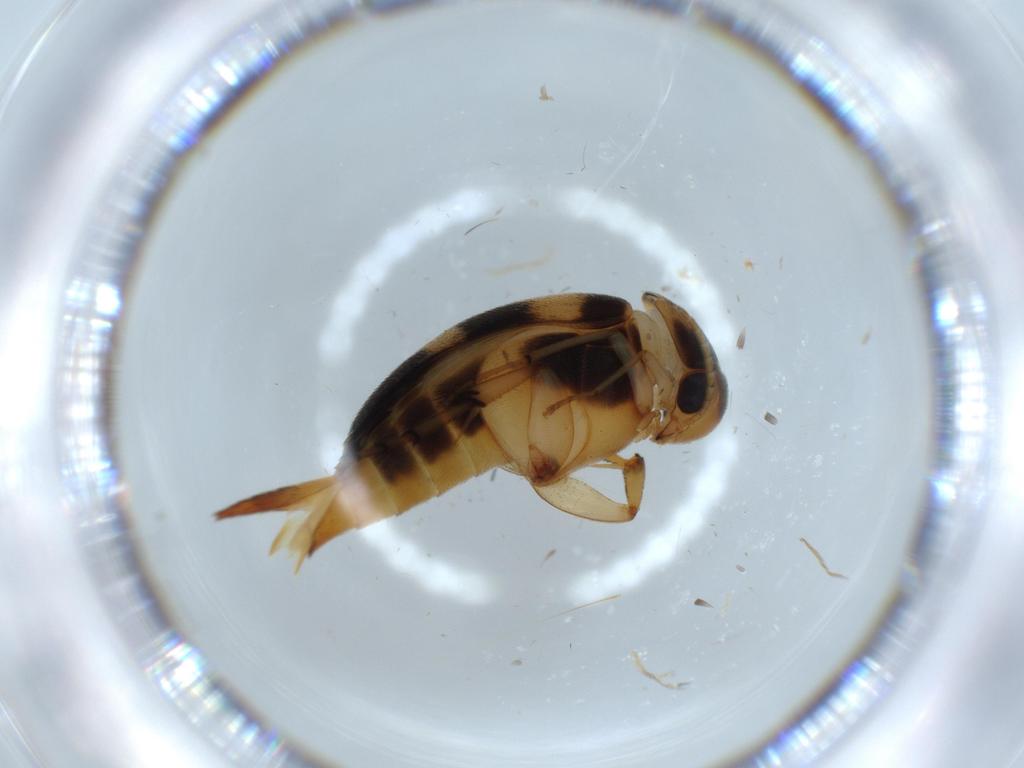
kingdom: Animalia
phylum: Arthropoda
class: Insecta
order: Coleoptera
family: Mordellidae
